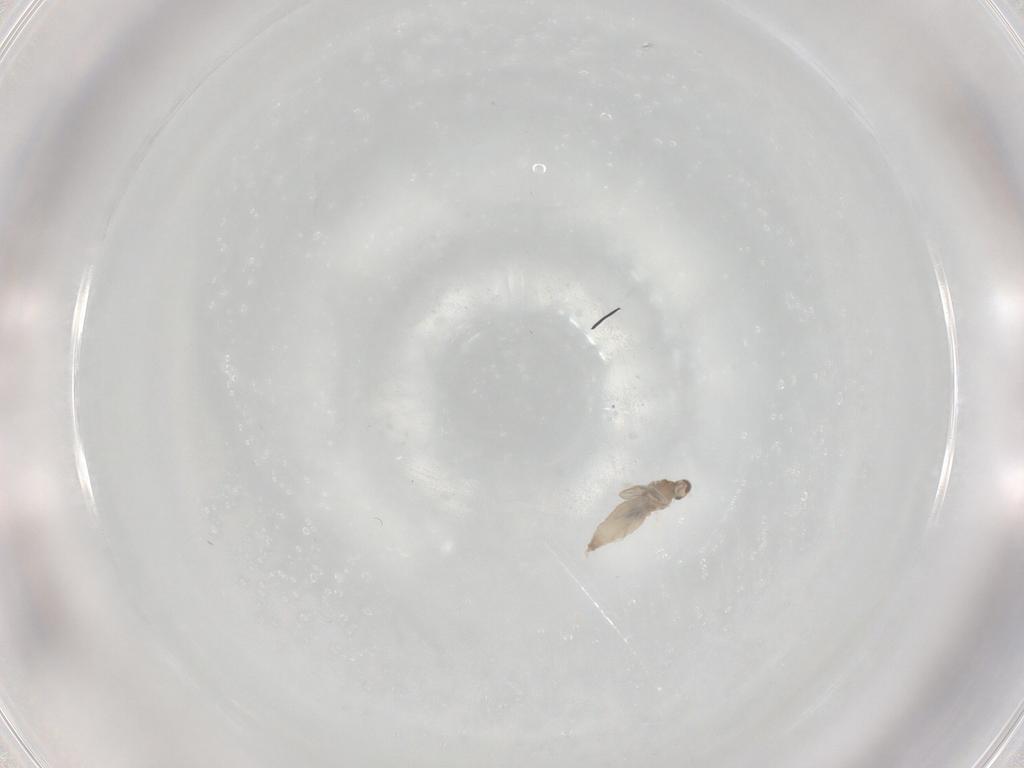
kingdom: Animalia
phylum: Arthropoda
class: Insecta
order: Diptera
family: Cecidomyiidae
